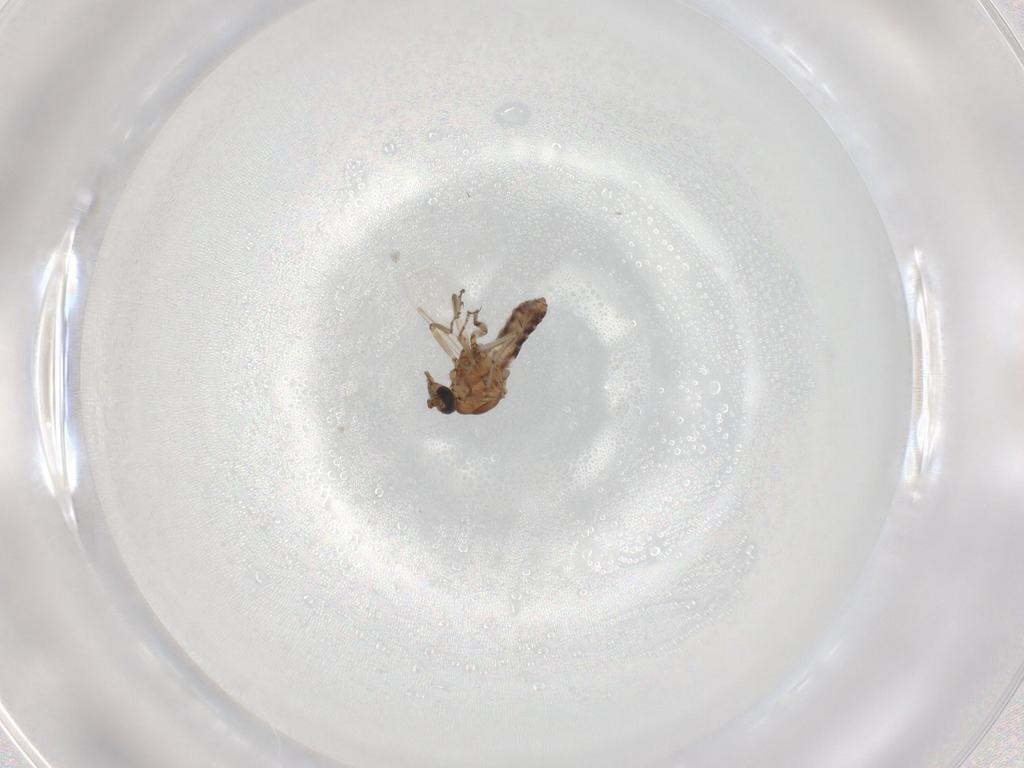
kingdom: Animalia
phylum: Arthropoda
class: Insecta
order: Diptera
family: Ceratopogonidae
